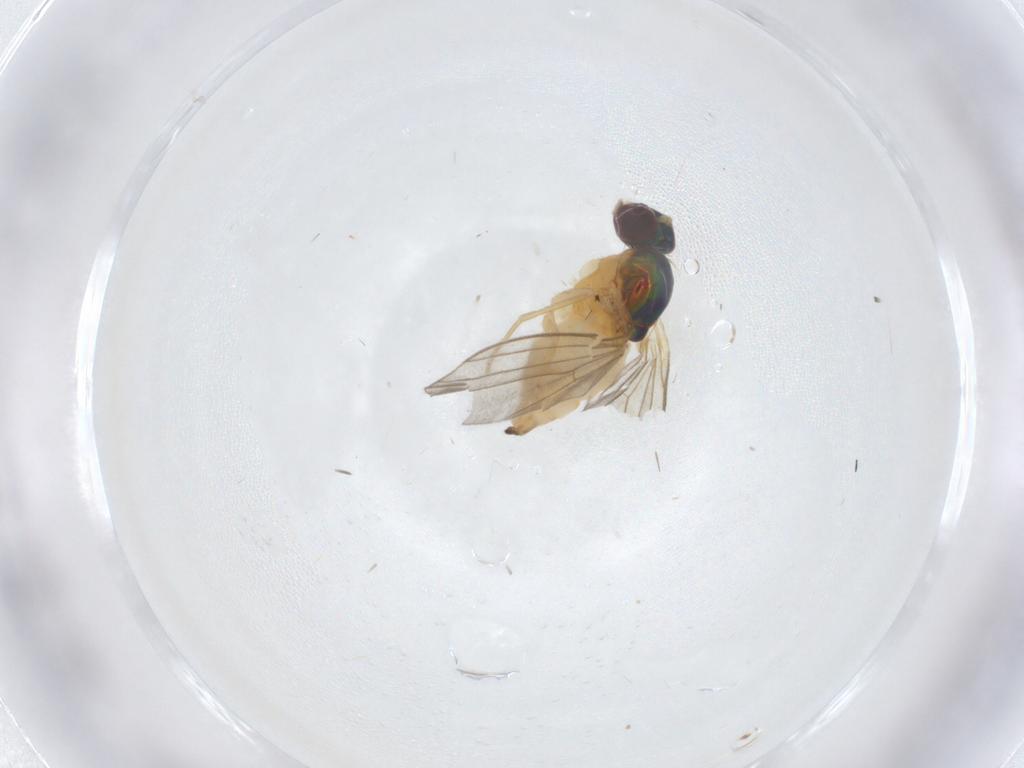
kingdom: Animalia
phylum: Arthropoda
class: Insecta
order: Diptera
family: Dolichopodidae
